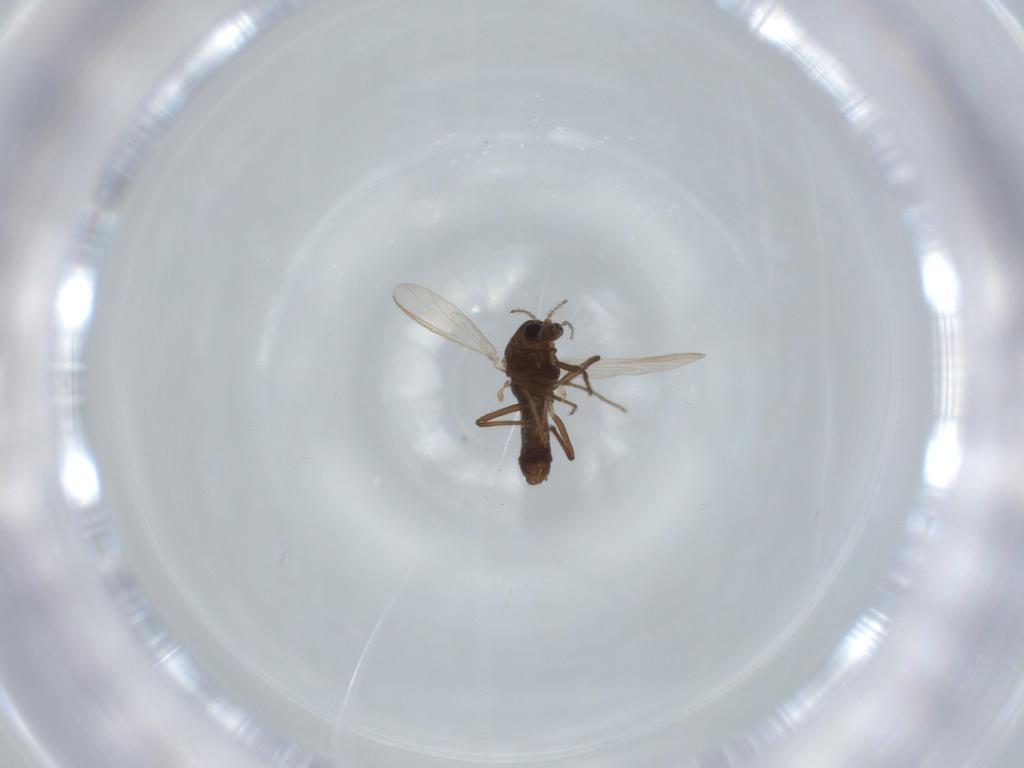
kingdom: Animalia
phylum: Arthropoda
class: Insecta
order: Diptera
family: Chironomidae
